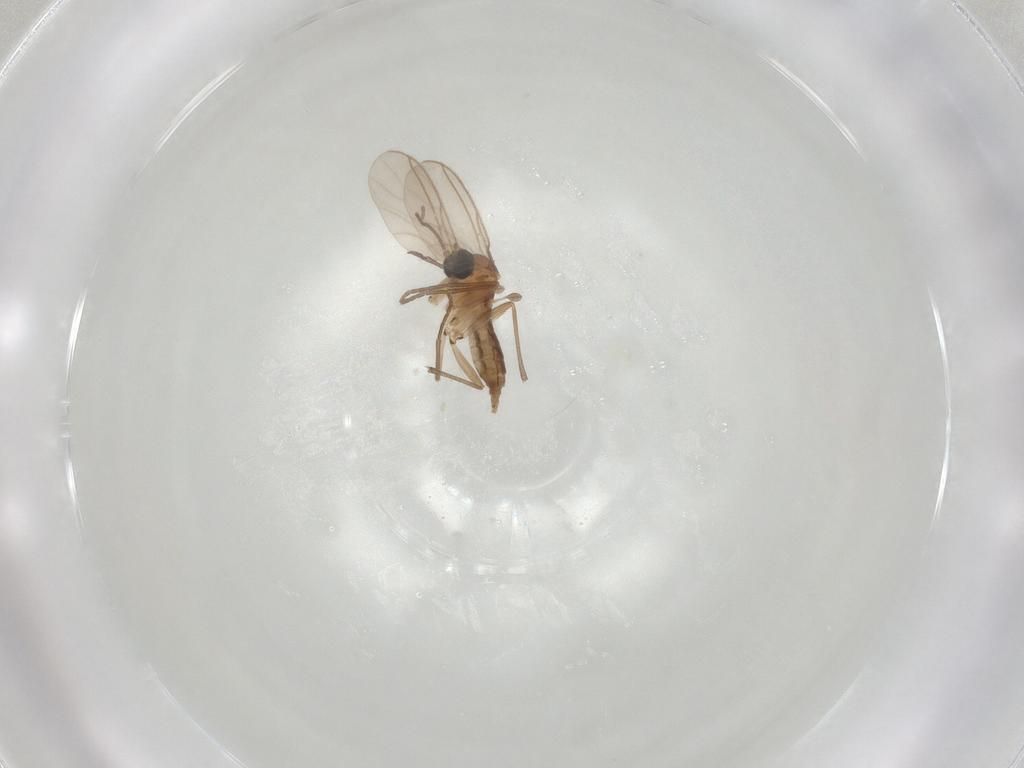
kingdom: Animalia
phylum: Arthropoda
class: Insecta
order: Diptera
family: Sciaridae
